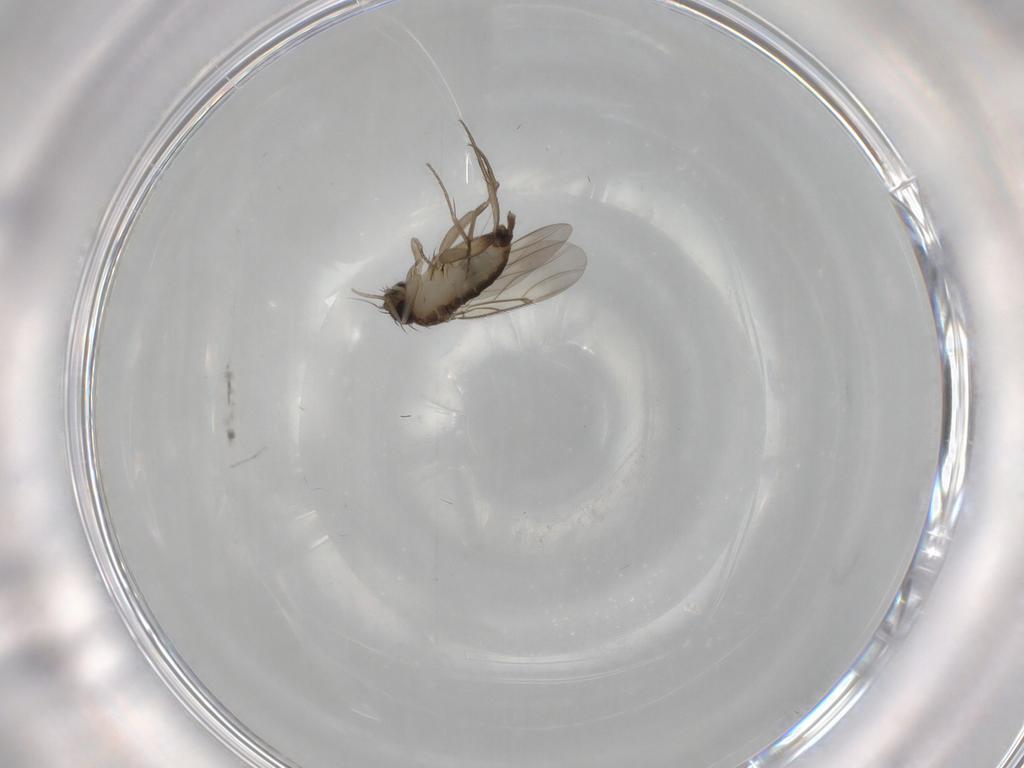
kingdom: Animalia
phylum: Arthropoda
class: Insecta
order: Diptera
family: Phoridae
